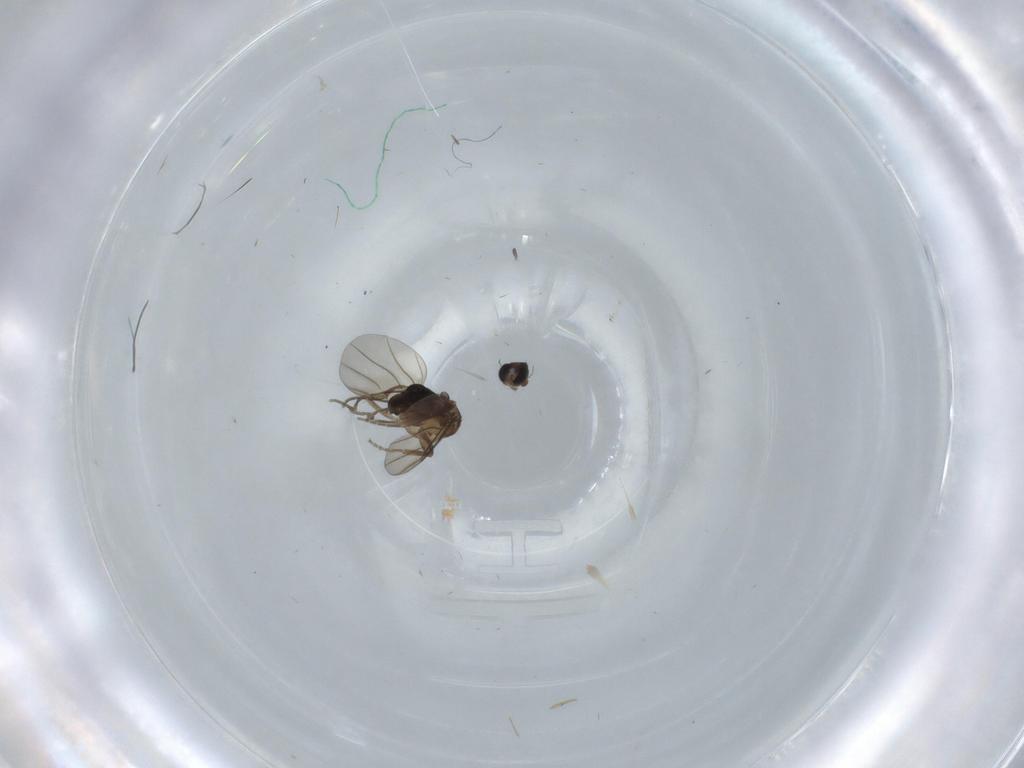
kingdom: Animalia
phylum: Arthropoda
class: Insecta
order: Diptera
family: Phoridae
